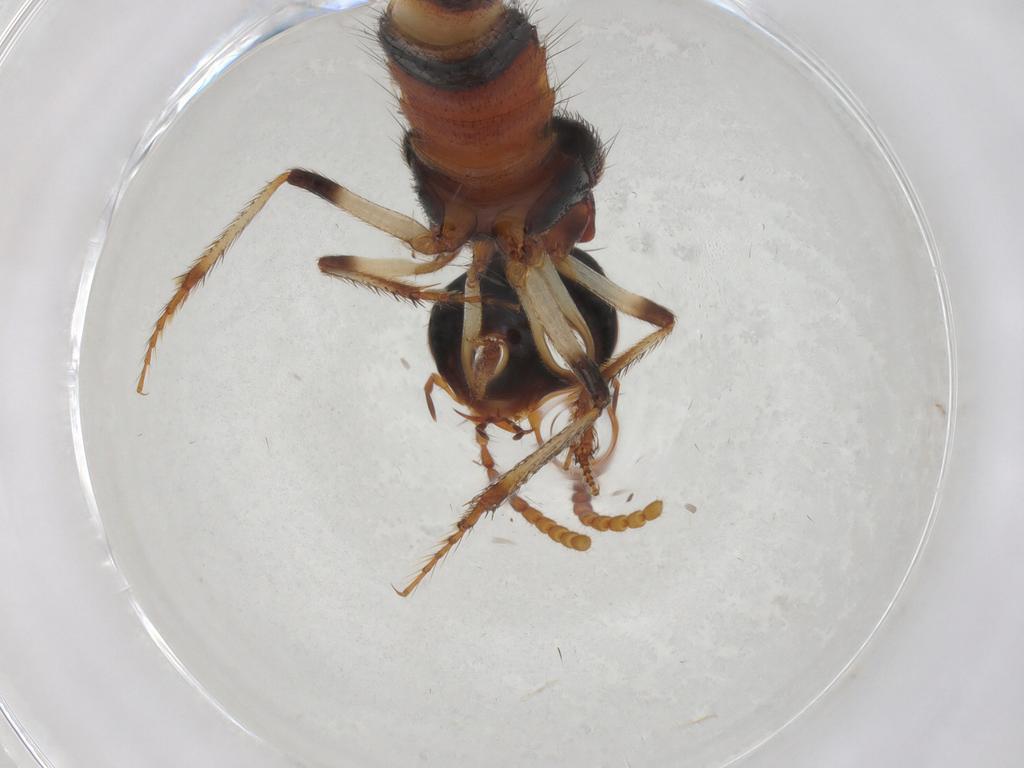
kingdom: Animalia
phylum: Arthropoda
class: Insecta
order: Coleoptera
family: Staphylinidae
